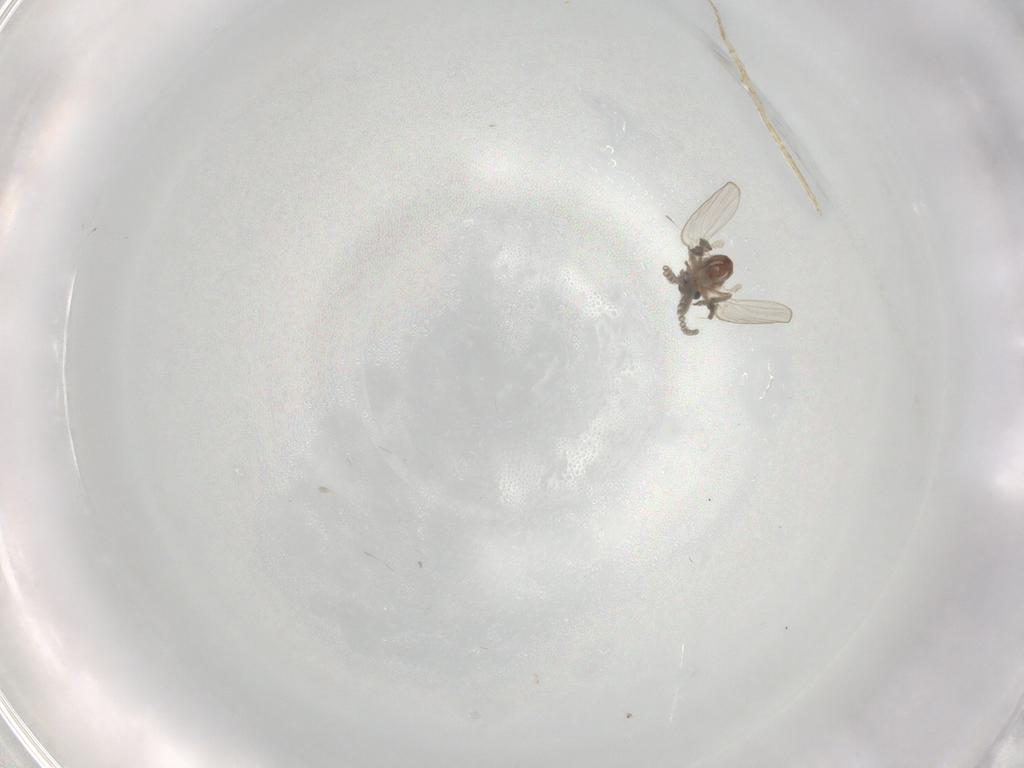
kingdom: Animalia
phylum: Arthropoda
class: Insecta
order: Diptera
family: Psychodidae
